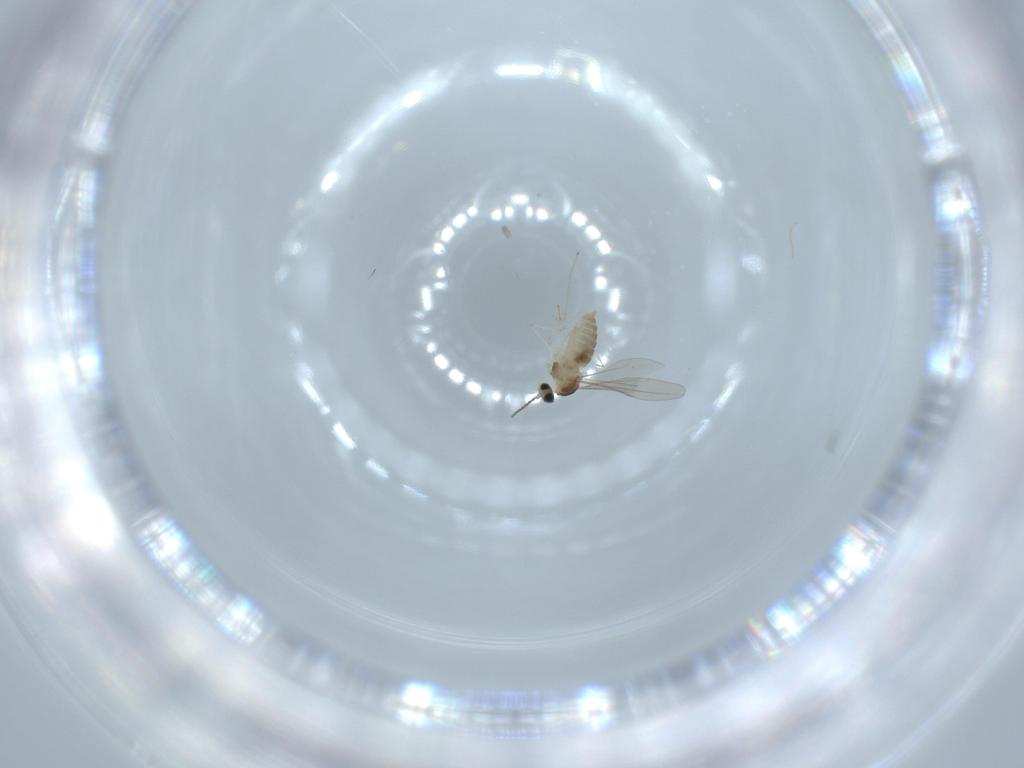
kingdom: Animalia
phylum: Arthropoda
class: Insecta
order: Diptera
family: Cecidomyiidae
